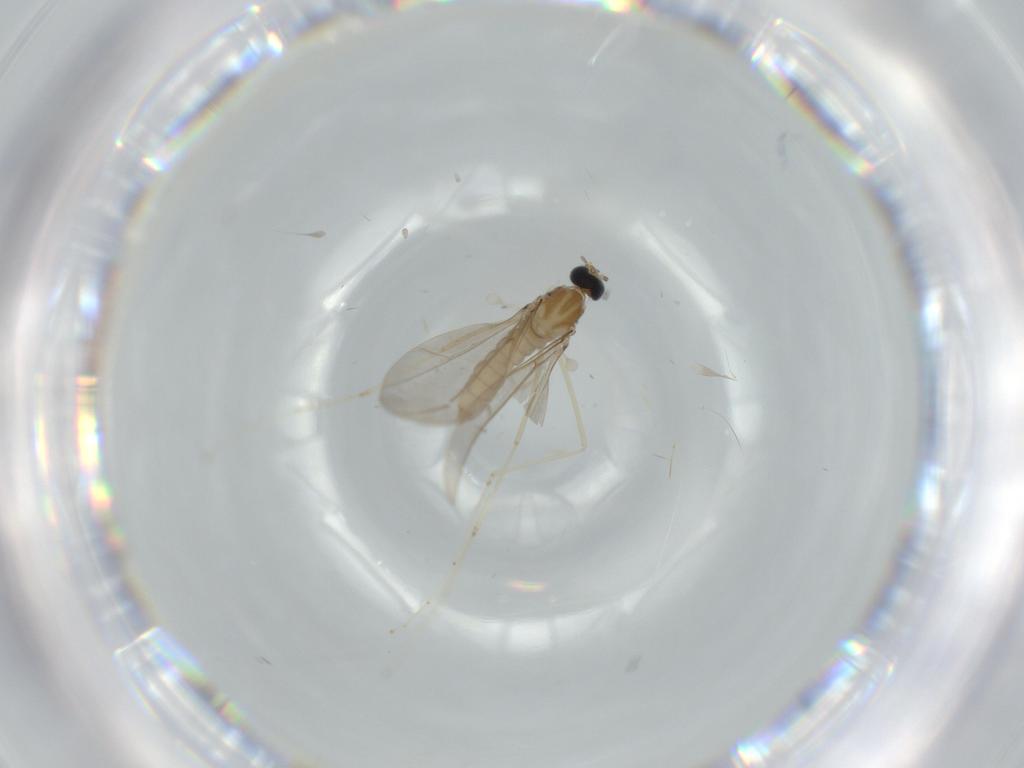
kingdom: Animalia
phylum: Arthropoda
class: Insecta
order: Diptera
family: Cecidomyiidae
